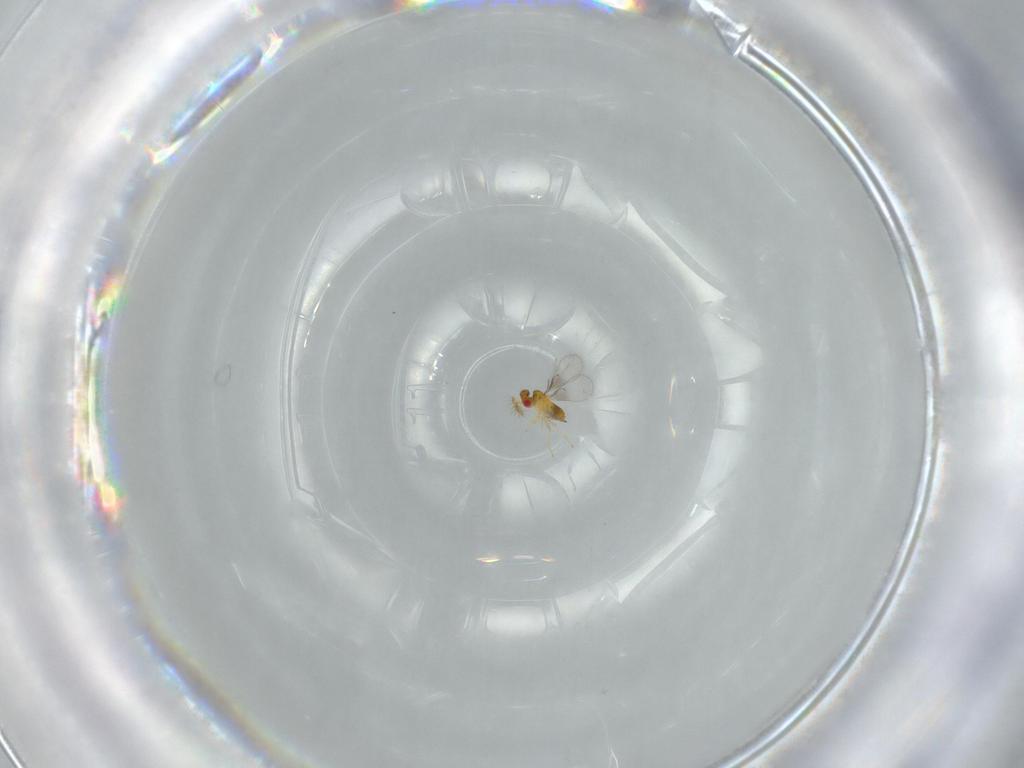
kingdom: Animalia
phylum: Arthropoda
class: Insecta
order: Hymenoptera
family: Trichogrammatidae
